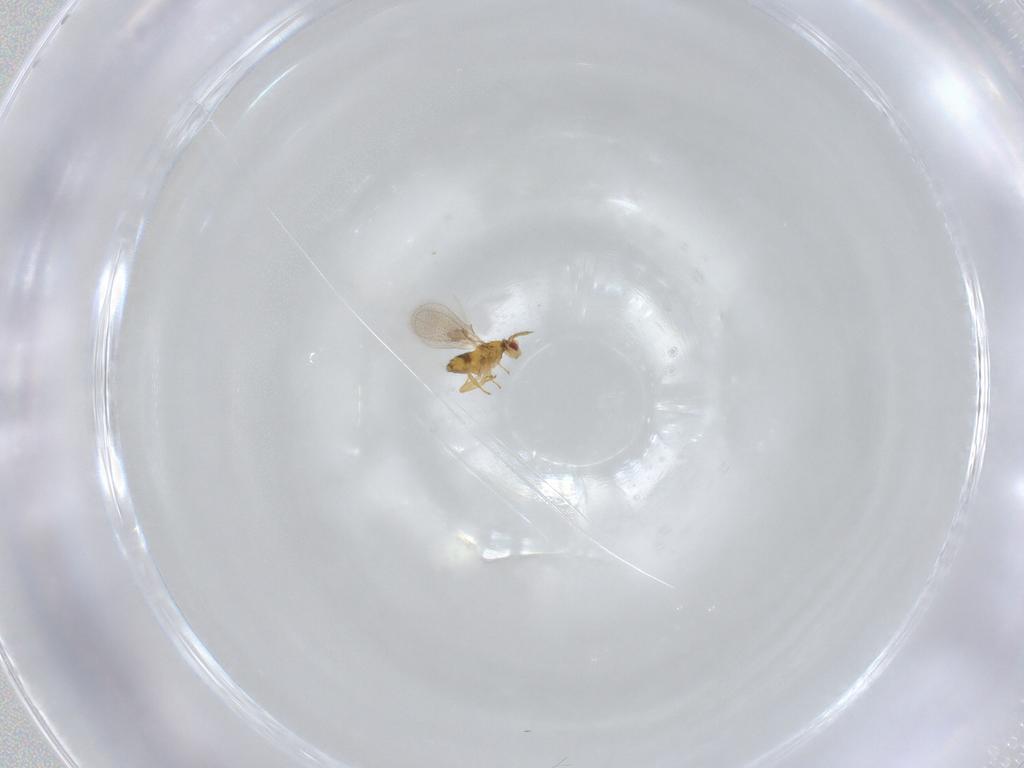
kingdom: Animalia
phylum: Arthropoda
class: Insecta
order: Hymenoptera
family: Trichogrammatidae
